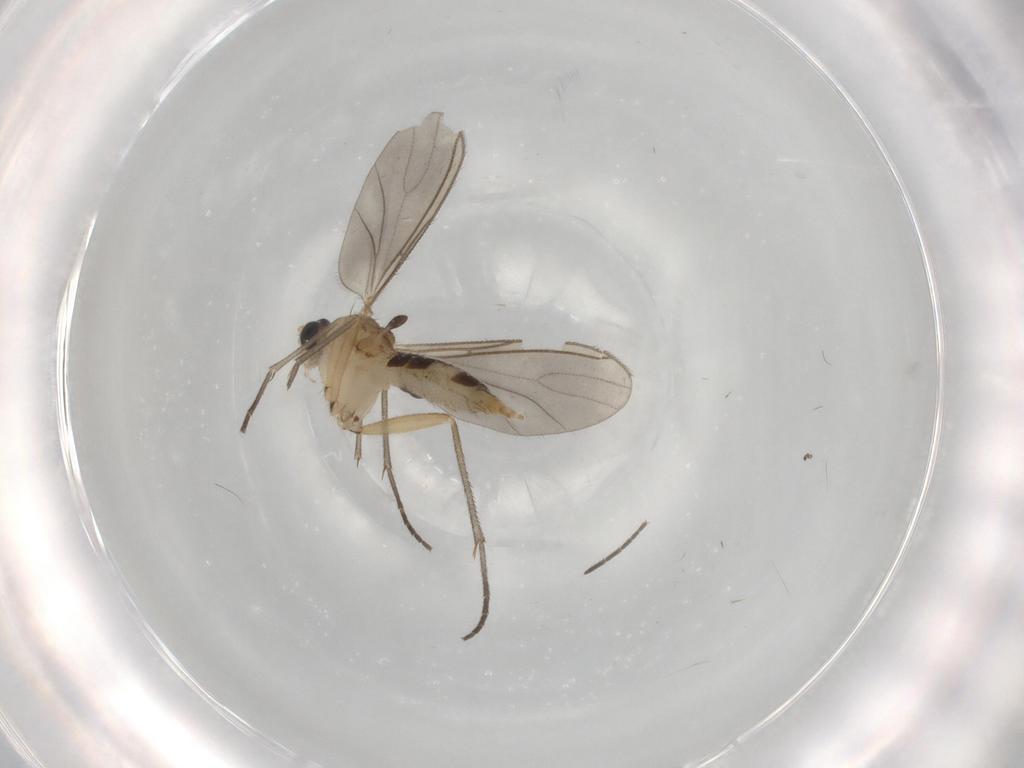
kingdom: Animalia
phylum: Arthropoda
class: Insecta
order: Diptera
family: Sciaridae
